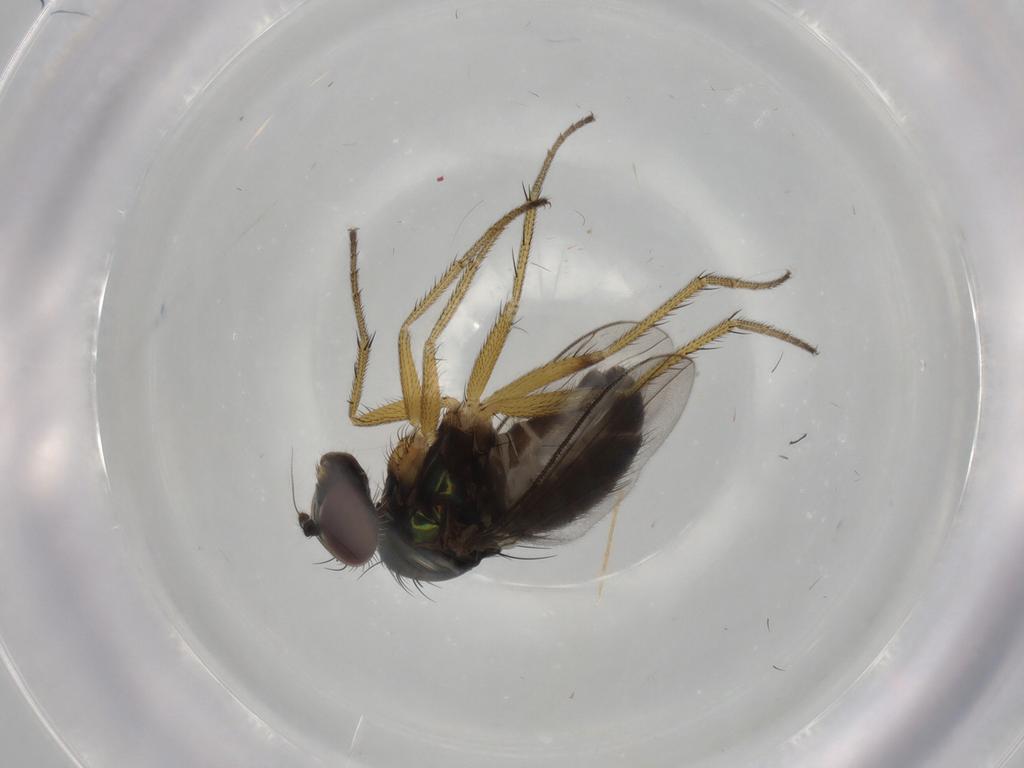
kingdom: Animalia
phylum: Arthropoda
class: Insecta
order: Diptera
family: Dolichopodidae
